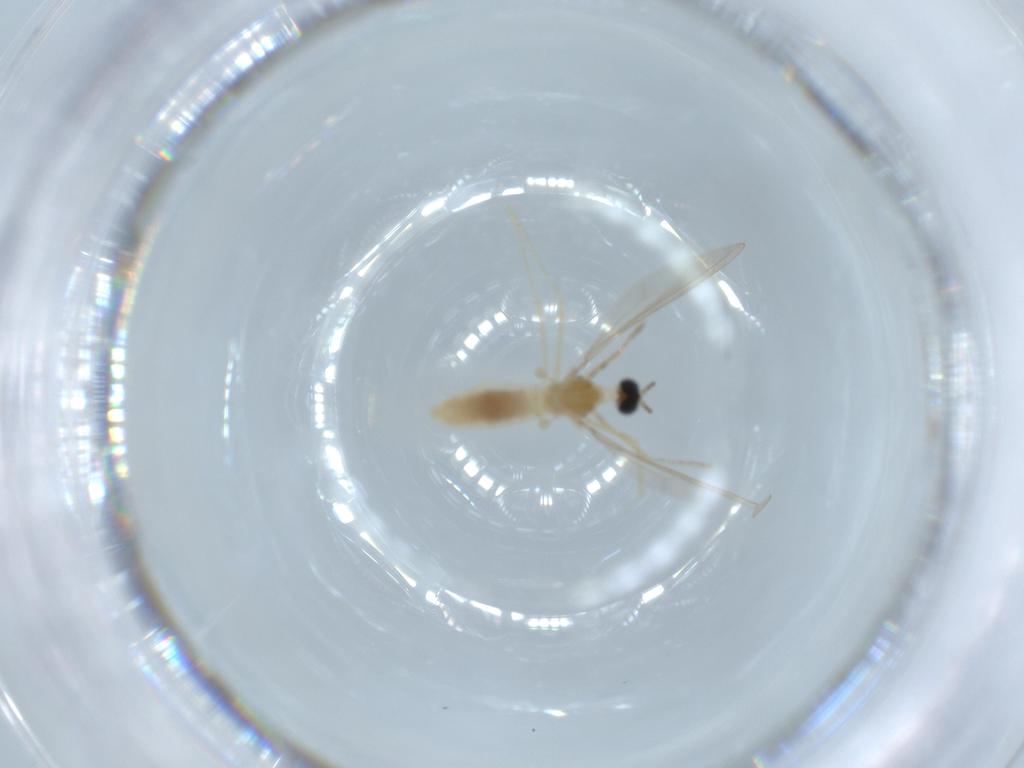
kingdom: Animalia
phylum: Arthropoda
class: Insecta
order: Diptera
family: Cecidomyiidae
